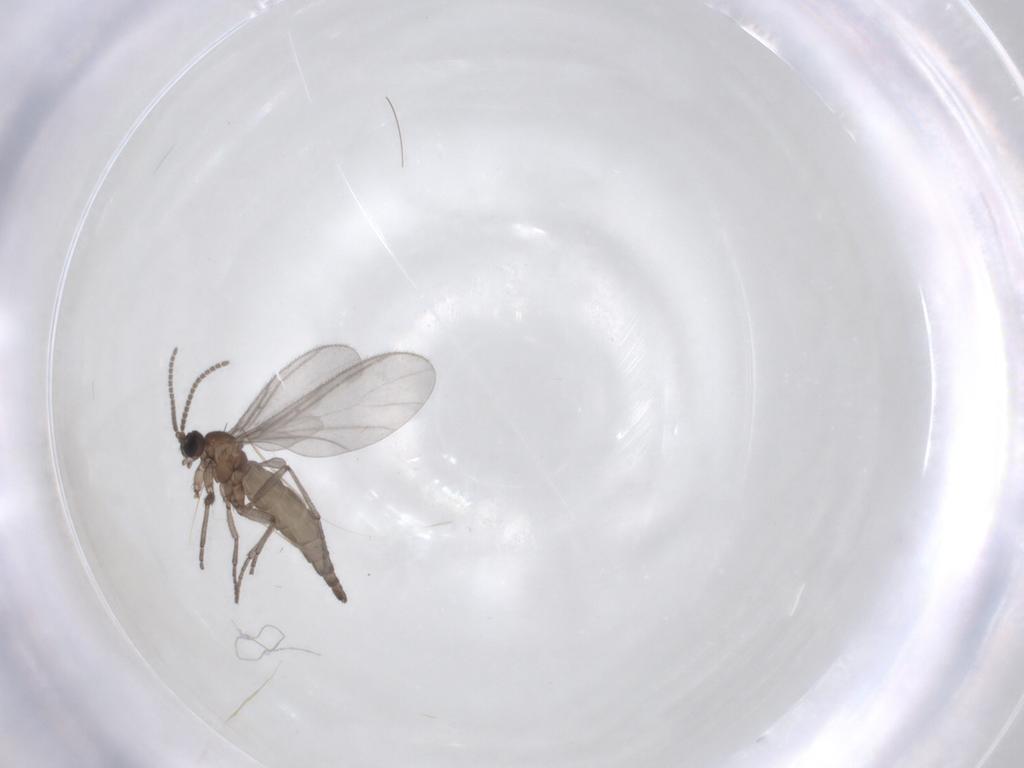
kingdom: Animalia
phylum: Arthropoda
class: Insecta
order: Diptera
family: Sciaridae
